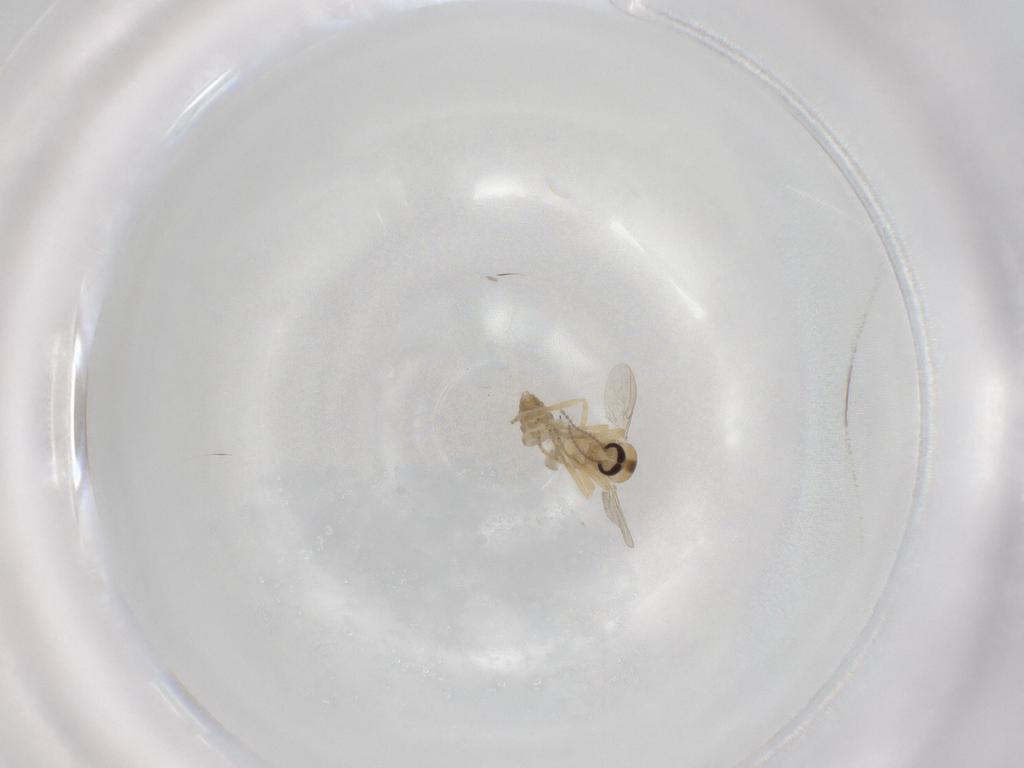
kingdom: Animalia
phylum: Arthropoda
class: Insecta
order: Diptera
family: Ceratopogonidae
